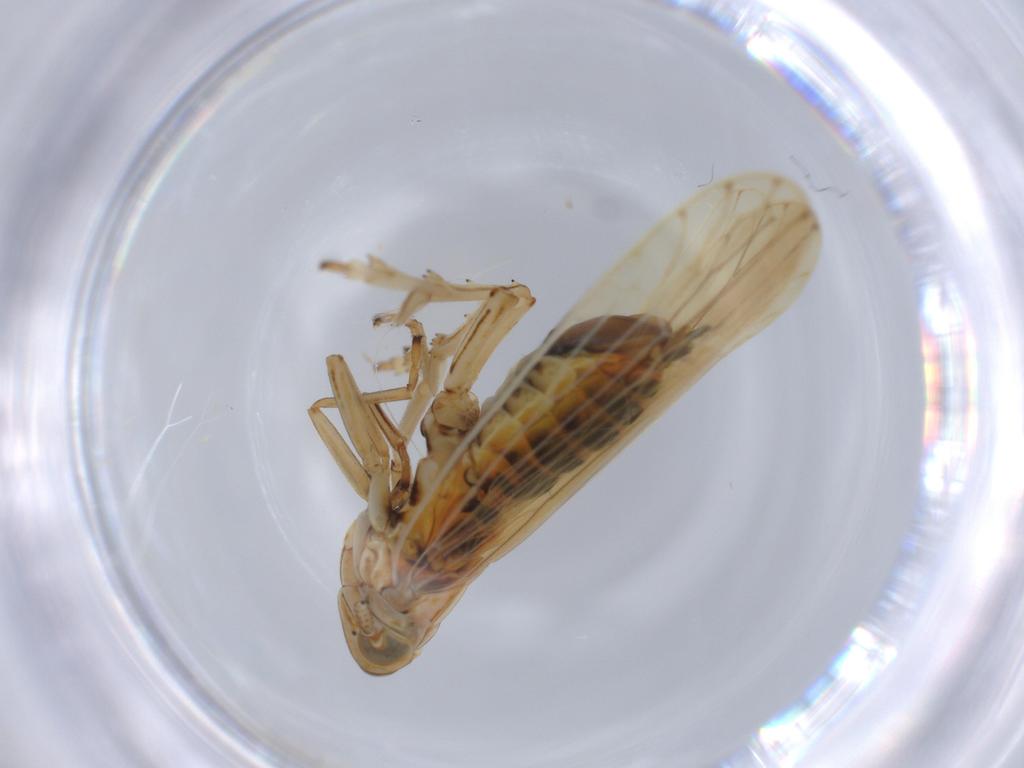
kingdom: Animalia
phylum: Arthropoda
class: Insecta
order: Hemiptera
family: Delphacidae
